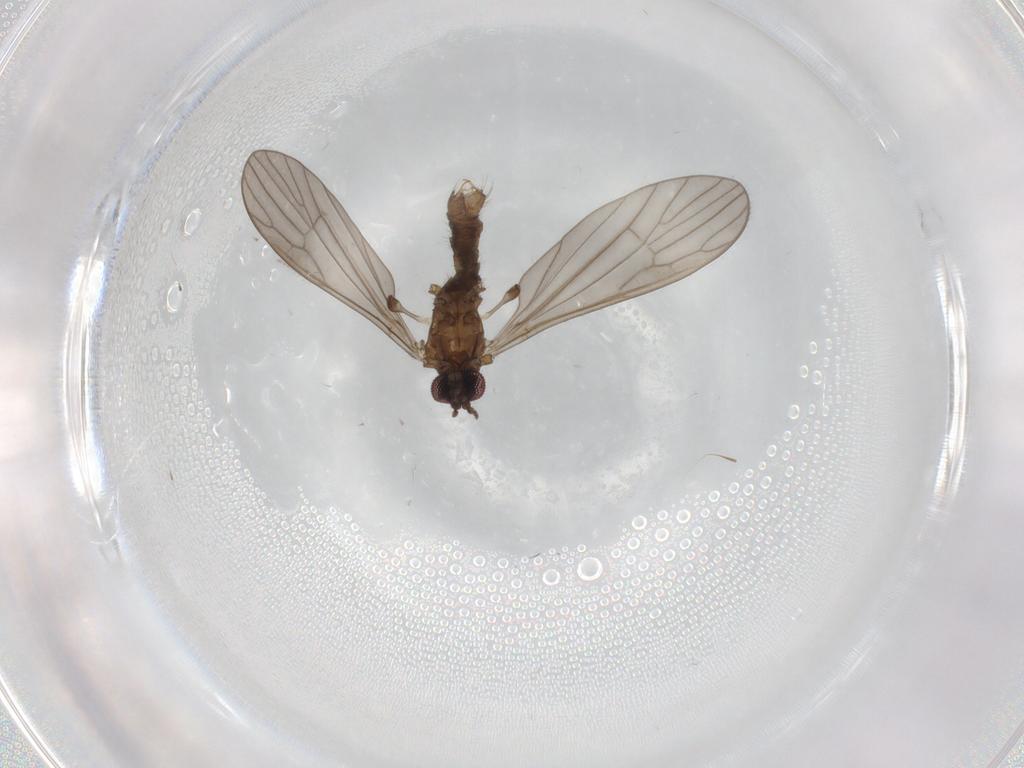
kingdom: Animalia
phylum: Arthropoda
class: Insecta
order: Diptera
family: Limoniidae
